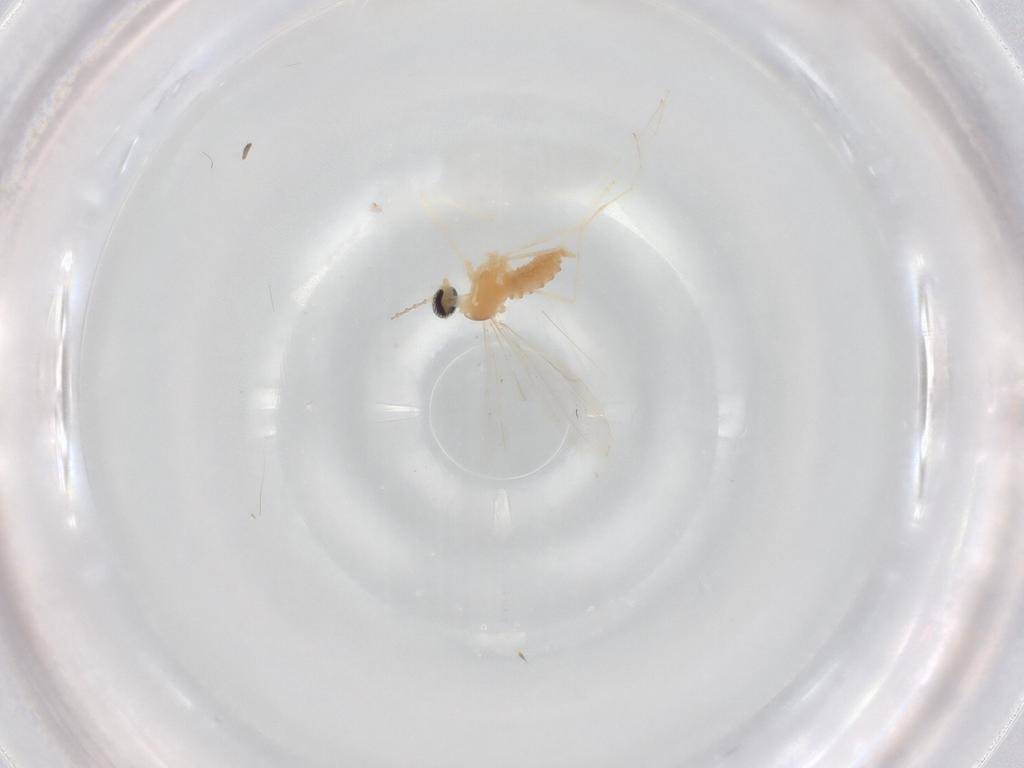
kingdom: Animalia
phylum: Arthropoda
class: Insecta
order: Diptera
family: Cecidomyiidae
